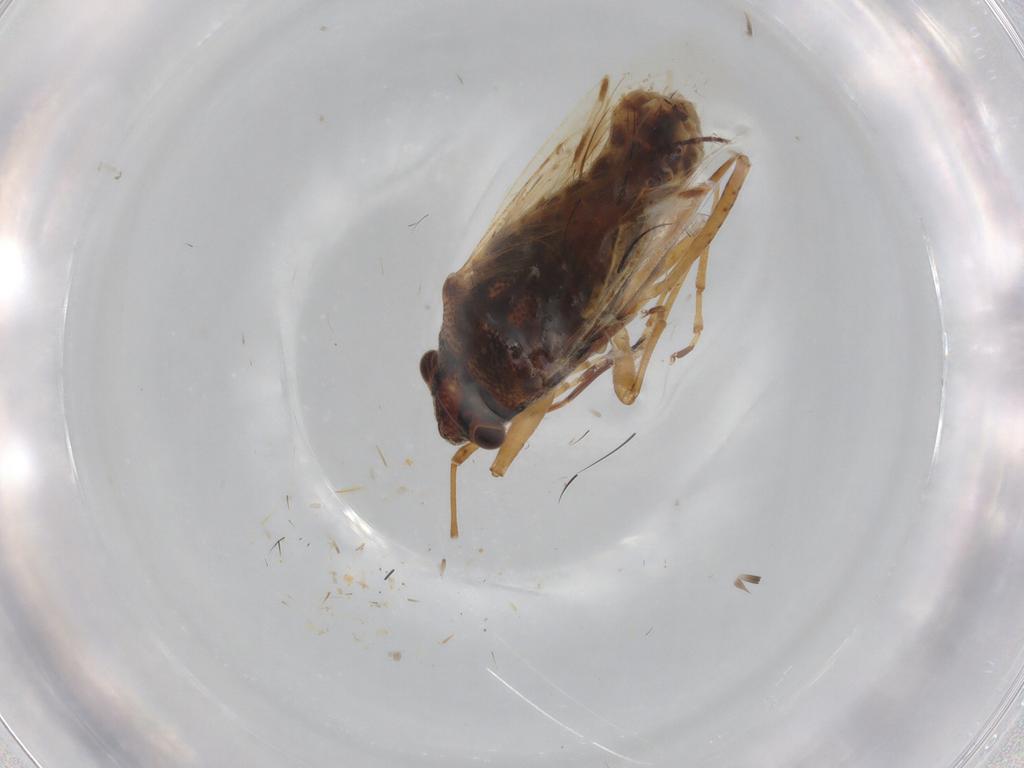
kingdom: Animalia
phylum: Arthropoda
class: Insecta
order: Hemiptera
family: Lygaeidae
